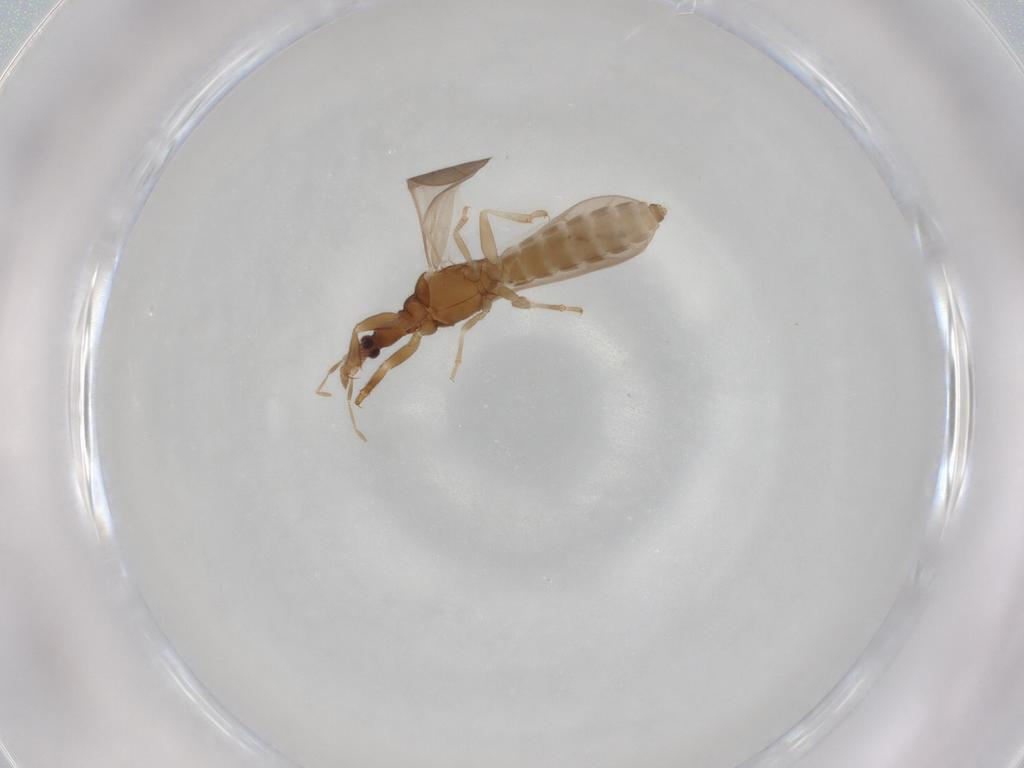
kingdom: Animalia
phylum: Arthropoda
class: Insecta
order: Hemiptera
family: Enicocephalidae
